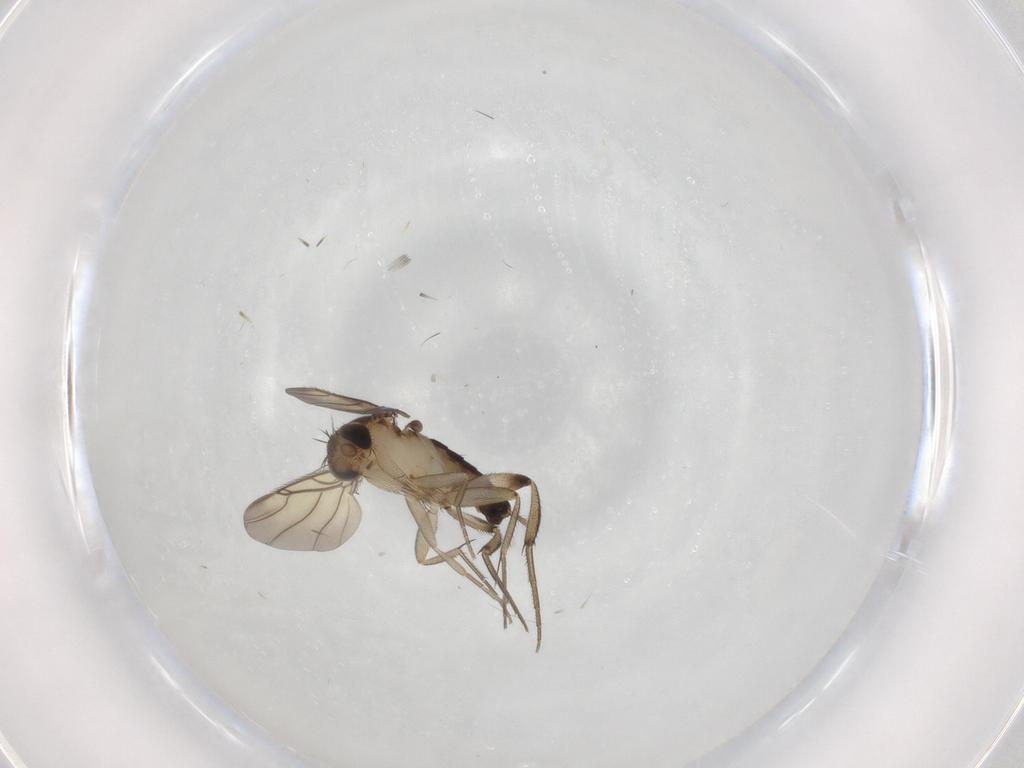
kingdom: Animalia
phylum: Arthropoda
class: Insecta
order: Diptera
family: Phoridae
